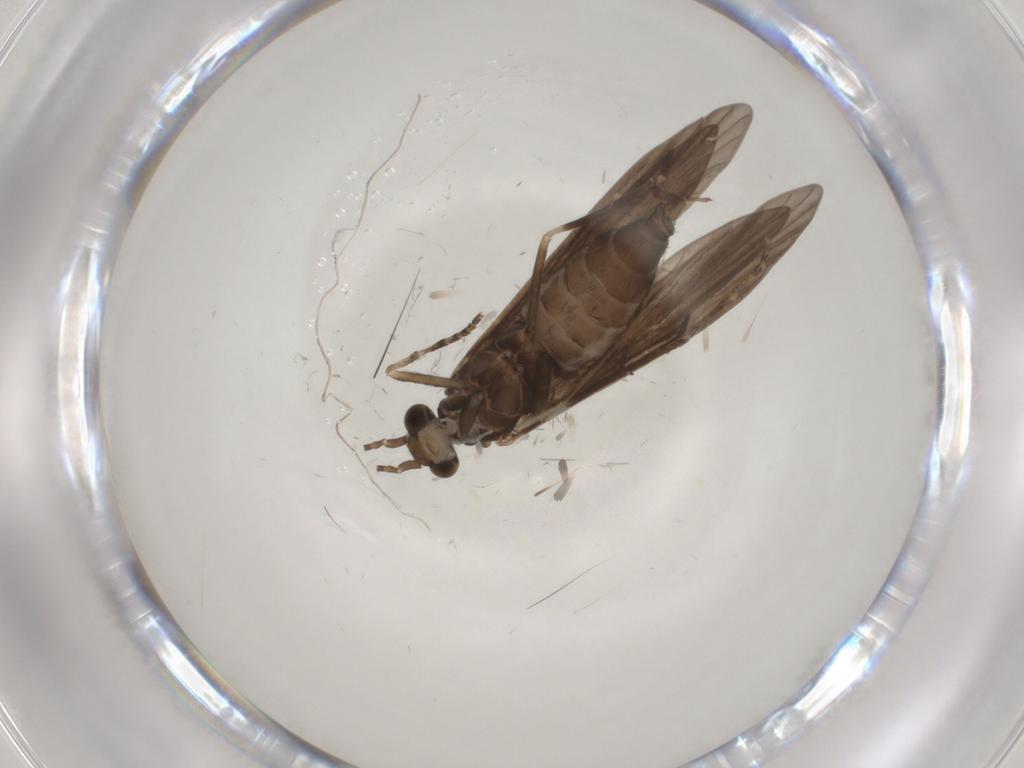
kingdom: Animalia
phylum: Arthropoda
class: Insecta
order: Trichoptera
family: Xiphocentronidae
